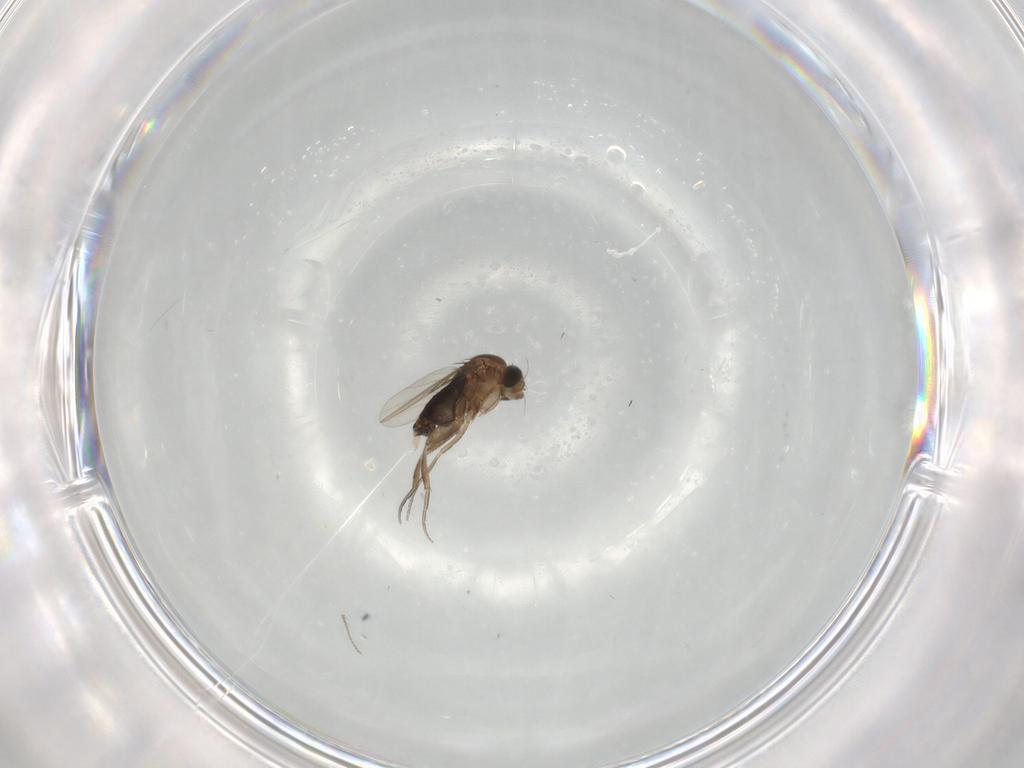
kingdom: Animalia
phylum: Arthropoda
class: Insecta
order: Diptera
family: Phoridae
